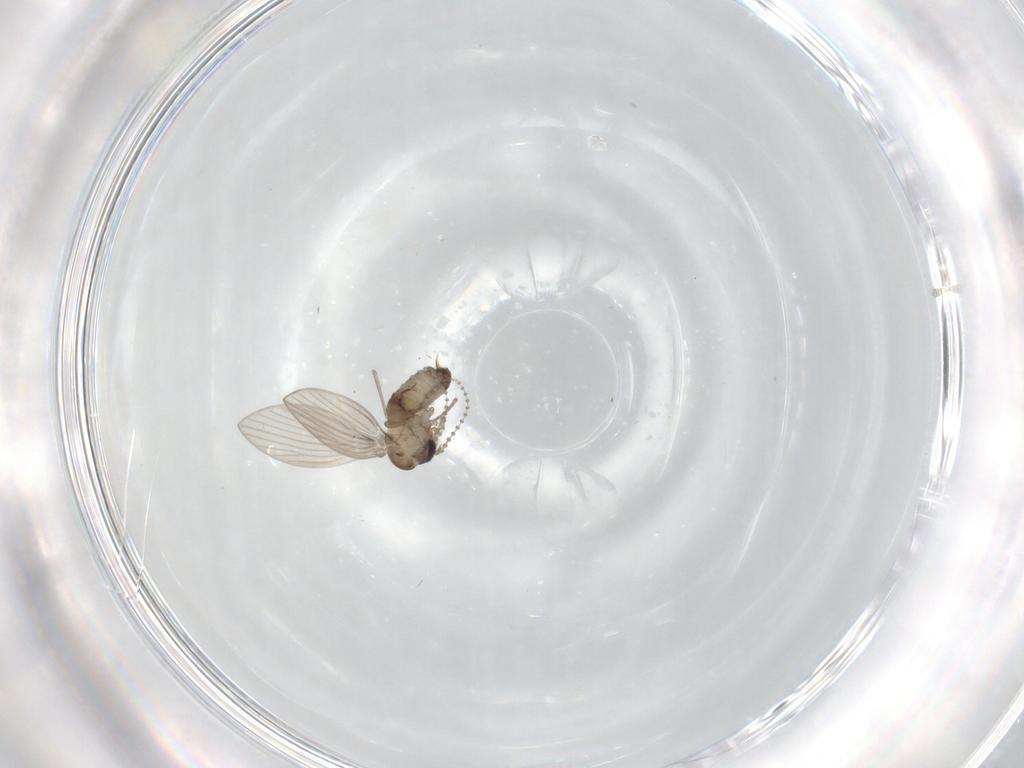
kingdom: Animalia
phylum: Arthropoda
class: Insecta
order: Diptera
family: Psychodidae
